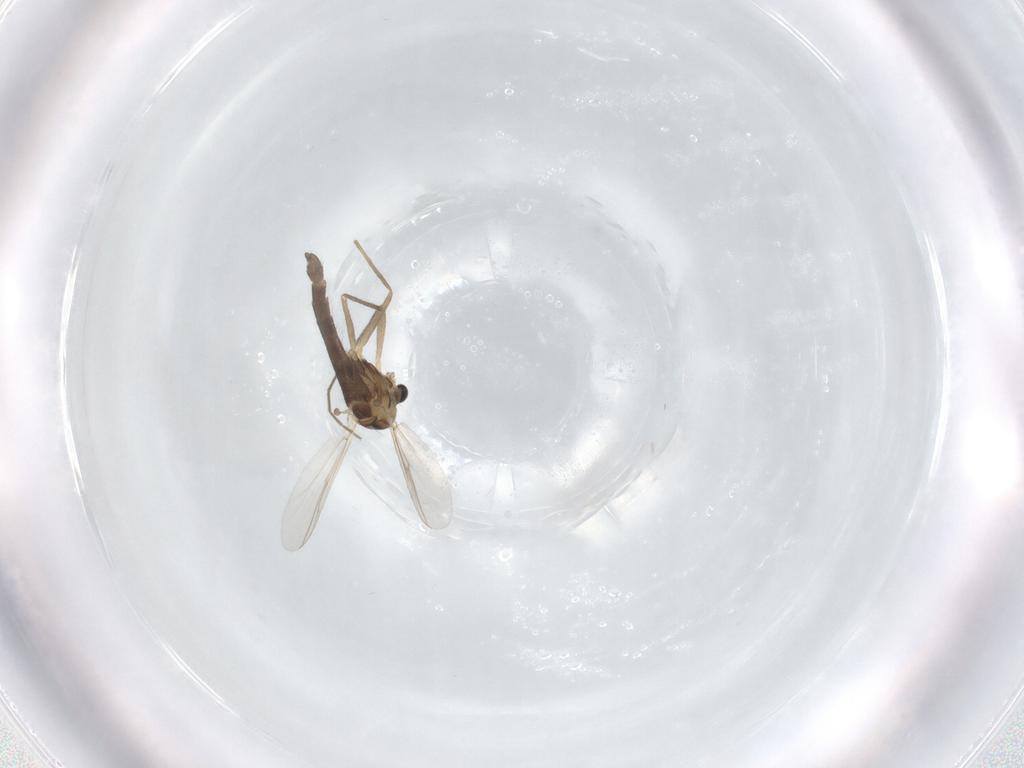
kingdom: Animalia
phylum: Arthropoda
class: Insecta
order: Diptera
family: Chironomidae
